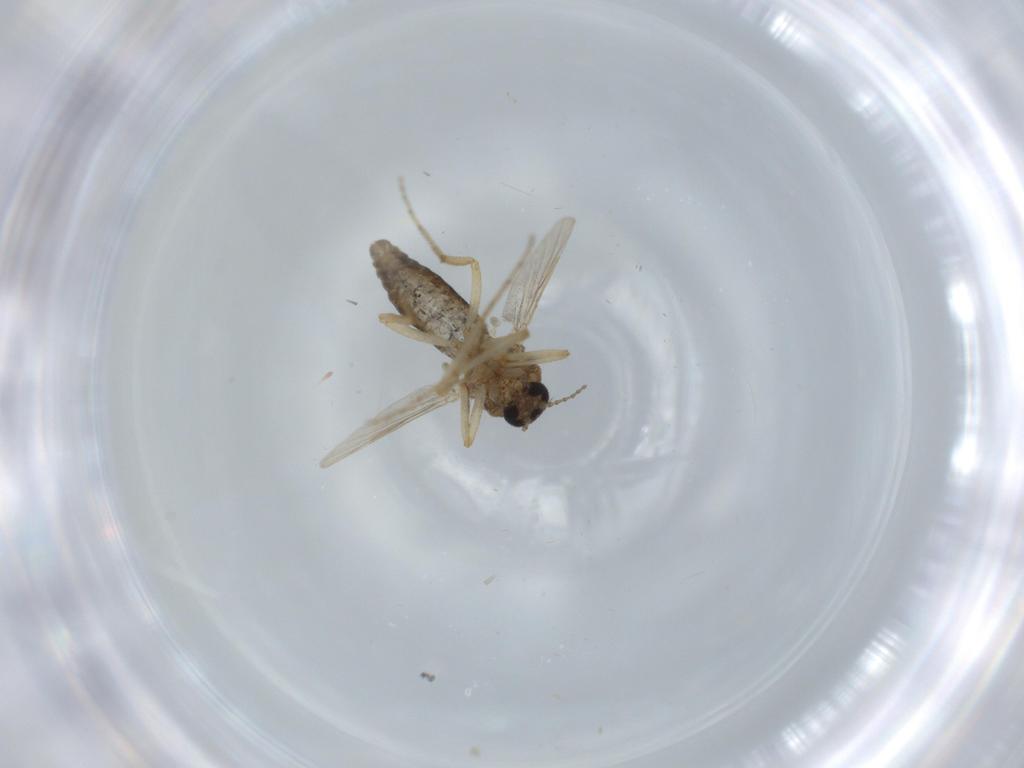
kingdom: Animalia
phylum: Arthropoda
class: Insecta
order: Diptera
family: Ceratopogonidae
